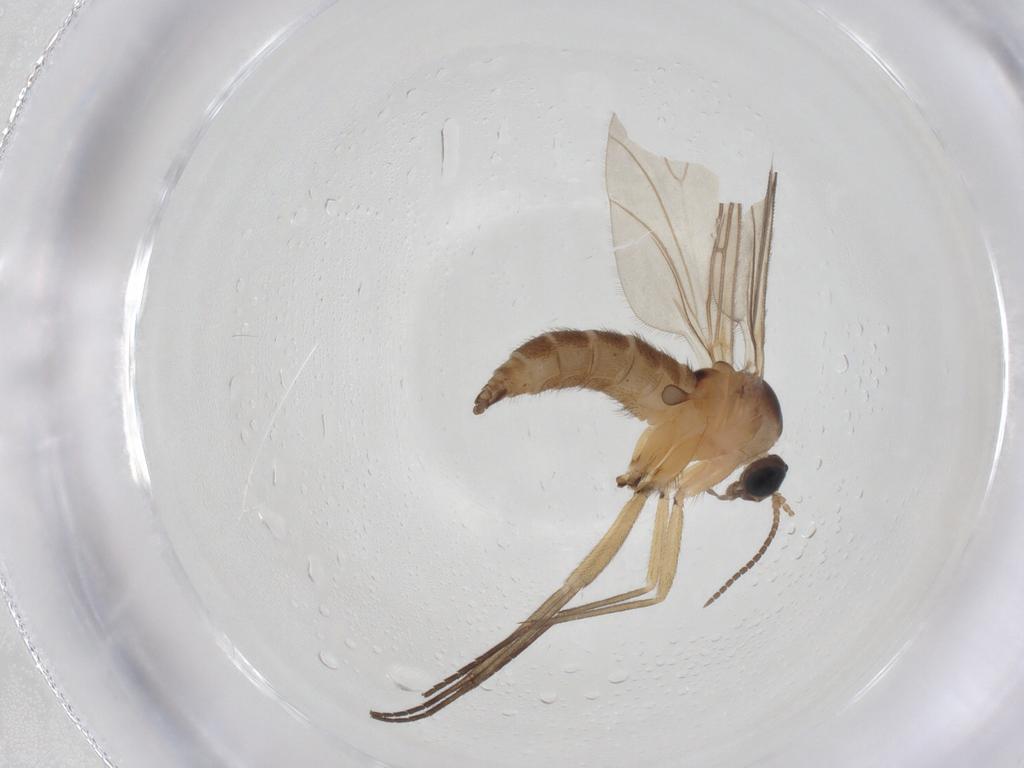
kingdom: Animalia
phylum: Arthropoda
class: Insecta
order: Diptera
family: Sciaridae
